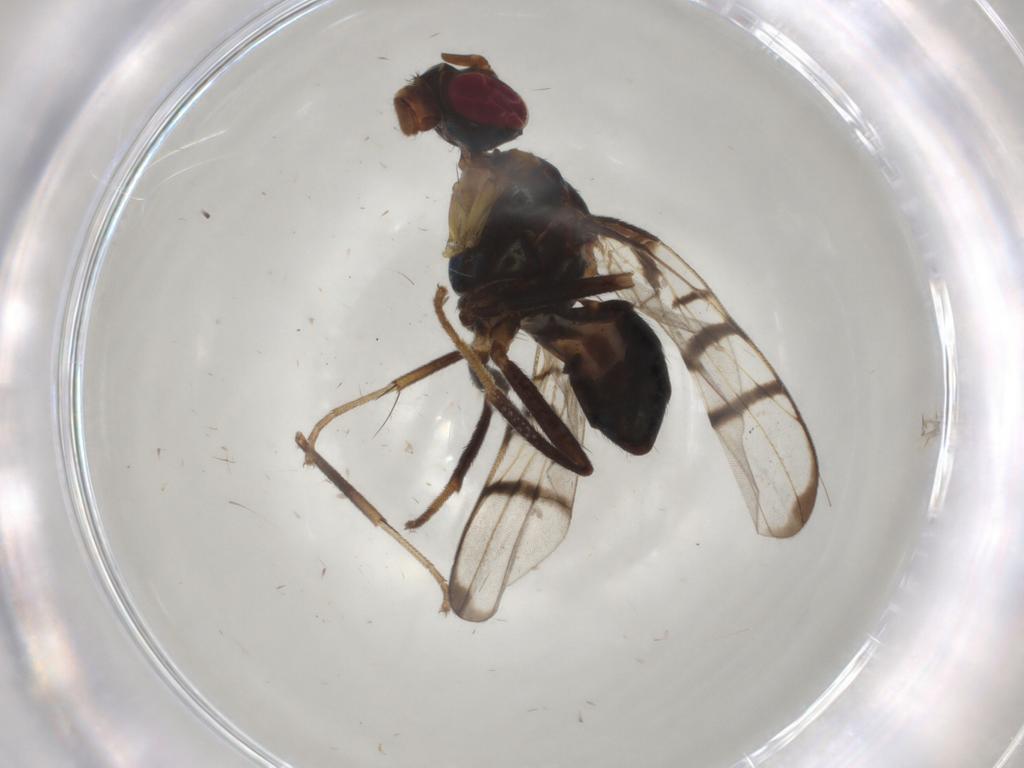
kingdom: Animalia
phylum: Arthropoda
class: Insecta
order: Diptera
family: Platystomatidae
